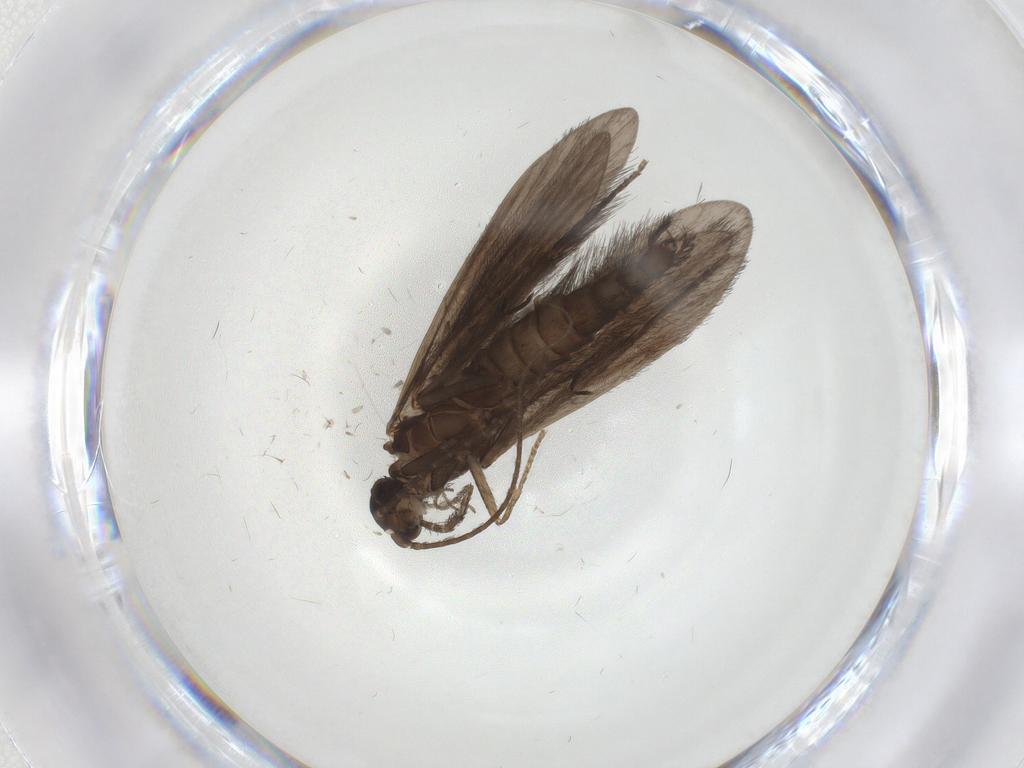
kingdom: Animalia
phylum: Arthropoda
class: Insecta
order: Trichoptera
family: Xiphocentronidae
